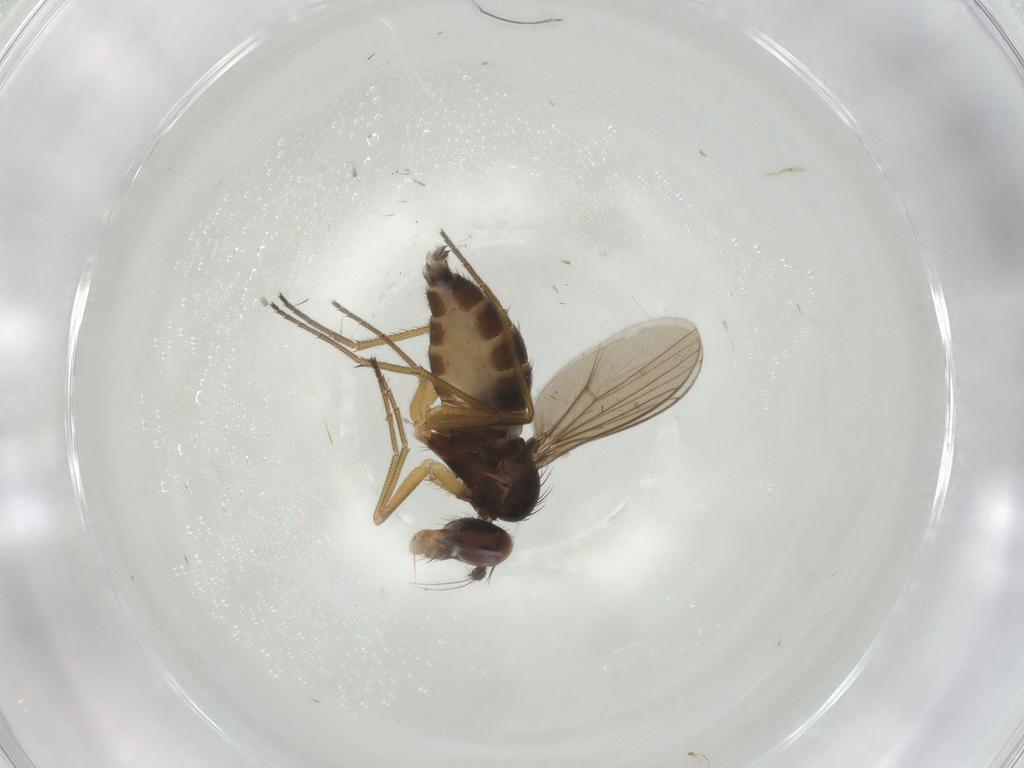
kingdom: Animalia
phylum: Arthropoda
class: Insecta
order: Diptera
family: Dolichopodidae
